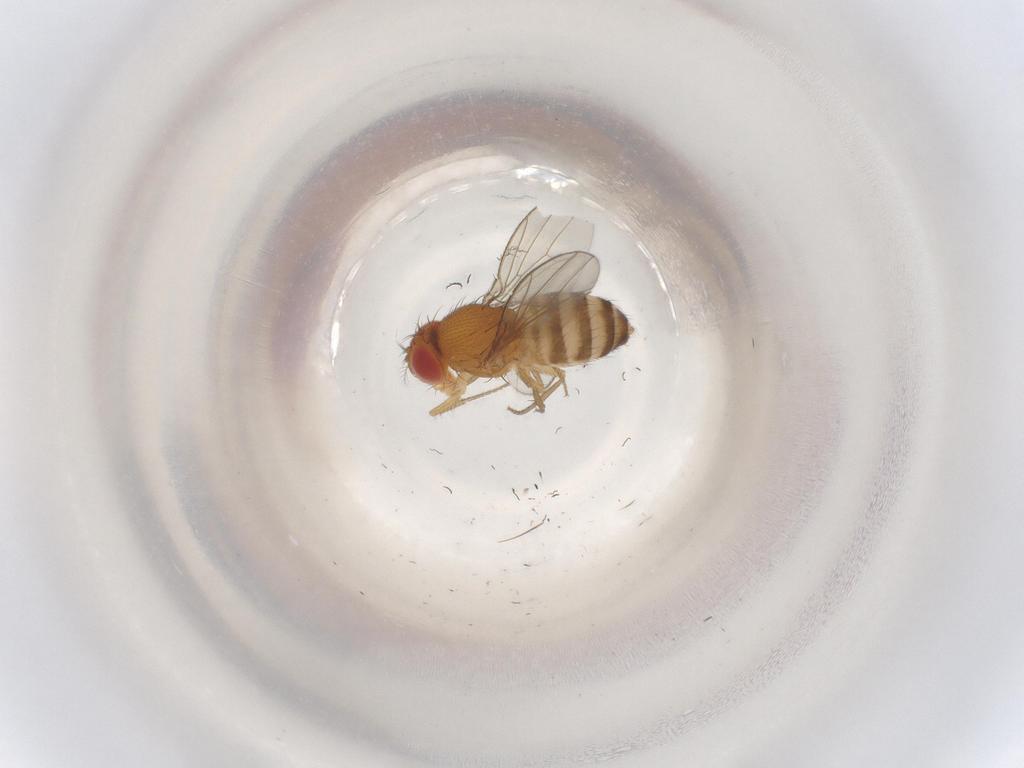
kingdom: Animalia
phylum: Arthropoda
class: Insecta
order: Diptera
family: Drosophilidae
